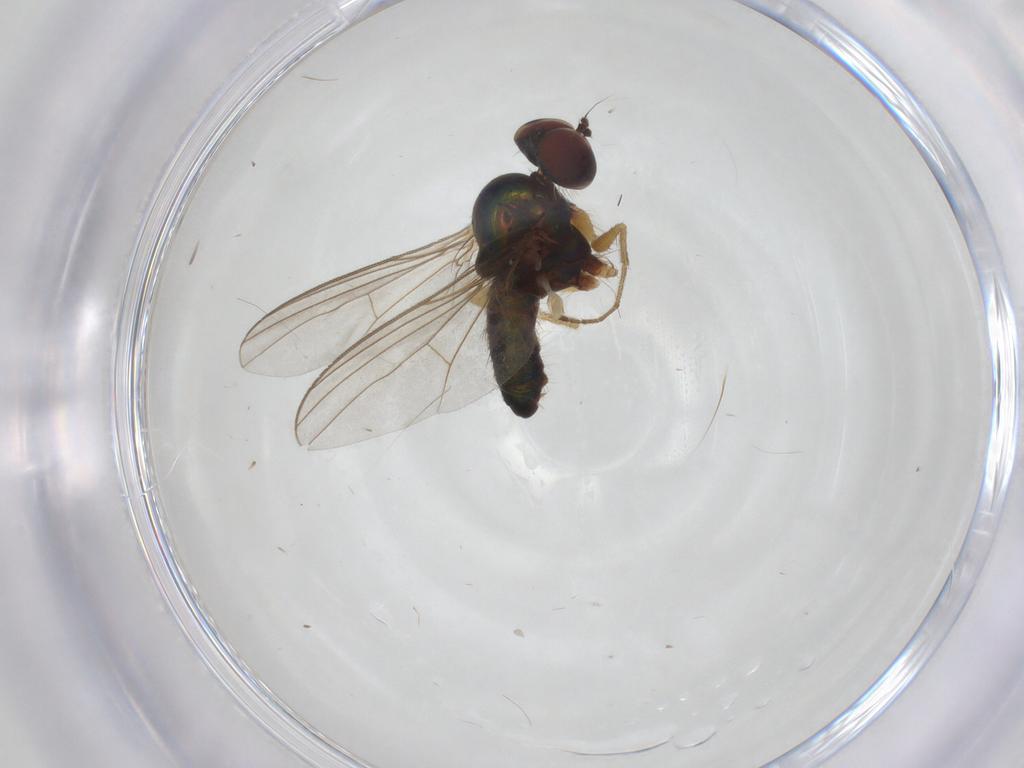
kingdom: Animalia
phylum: Arthropoda
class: Insecta
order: Diptera
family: Dolichopodidae
